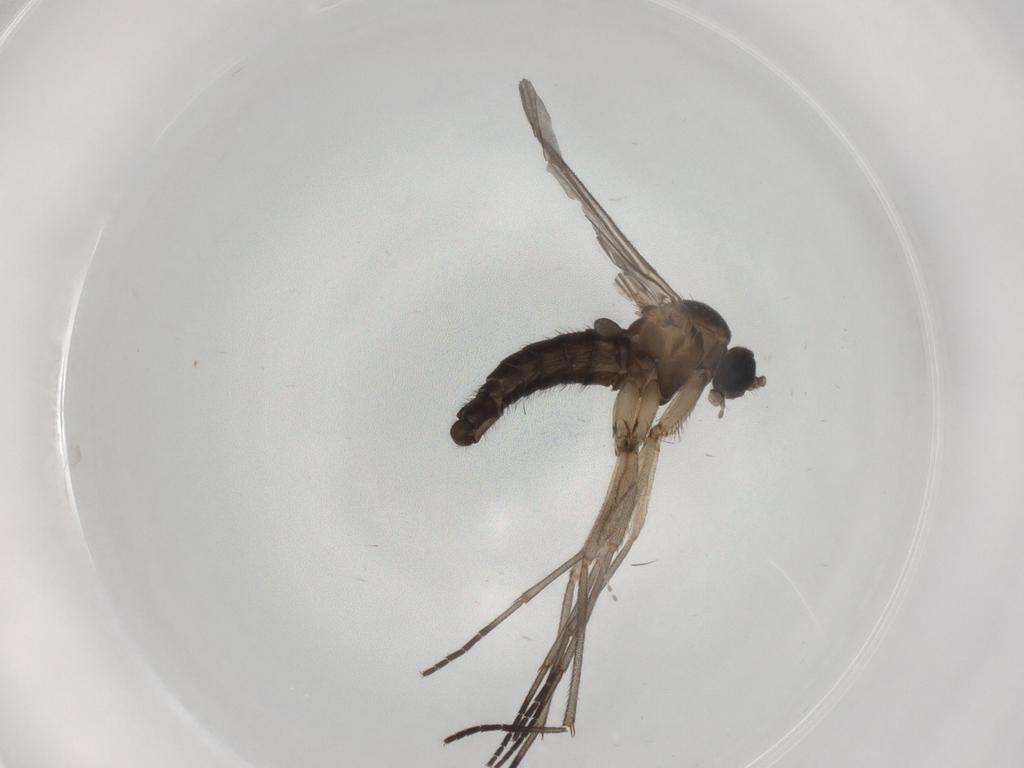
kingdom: Animalia
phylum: Arthropoda
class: Insecta
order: Diptera
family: Sciaridae
